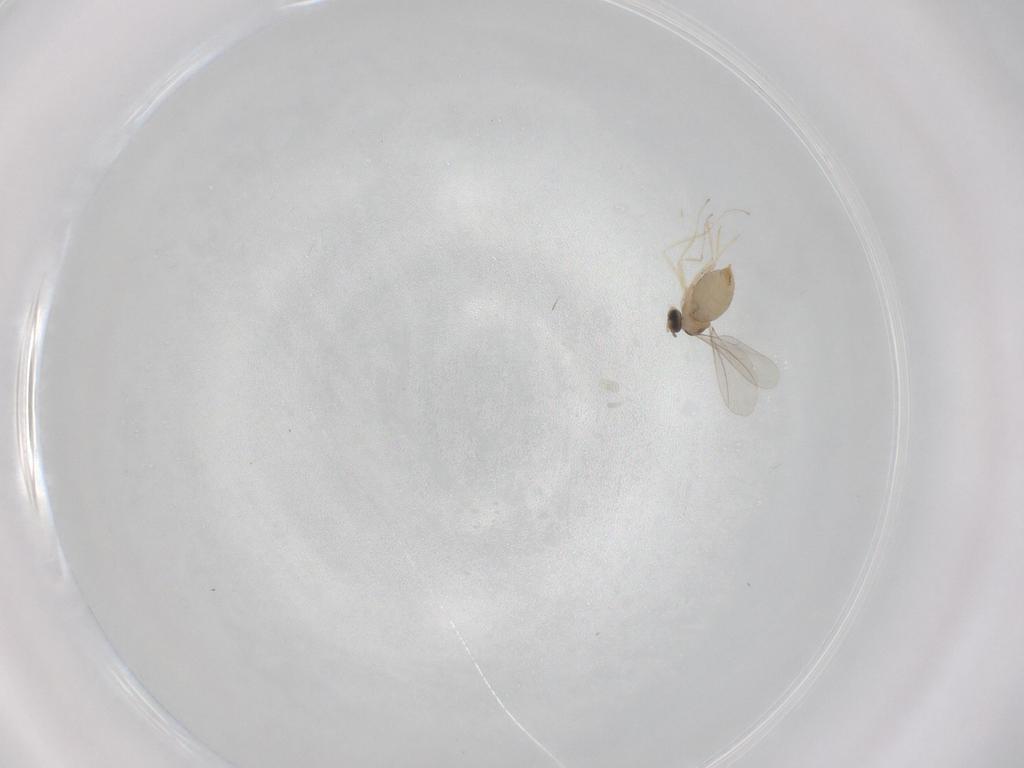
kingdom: Animalia
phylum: Arthropoda
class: Insecta
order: Diptera
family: Cecidomyiidae
